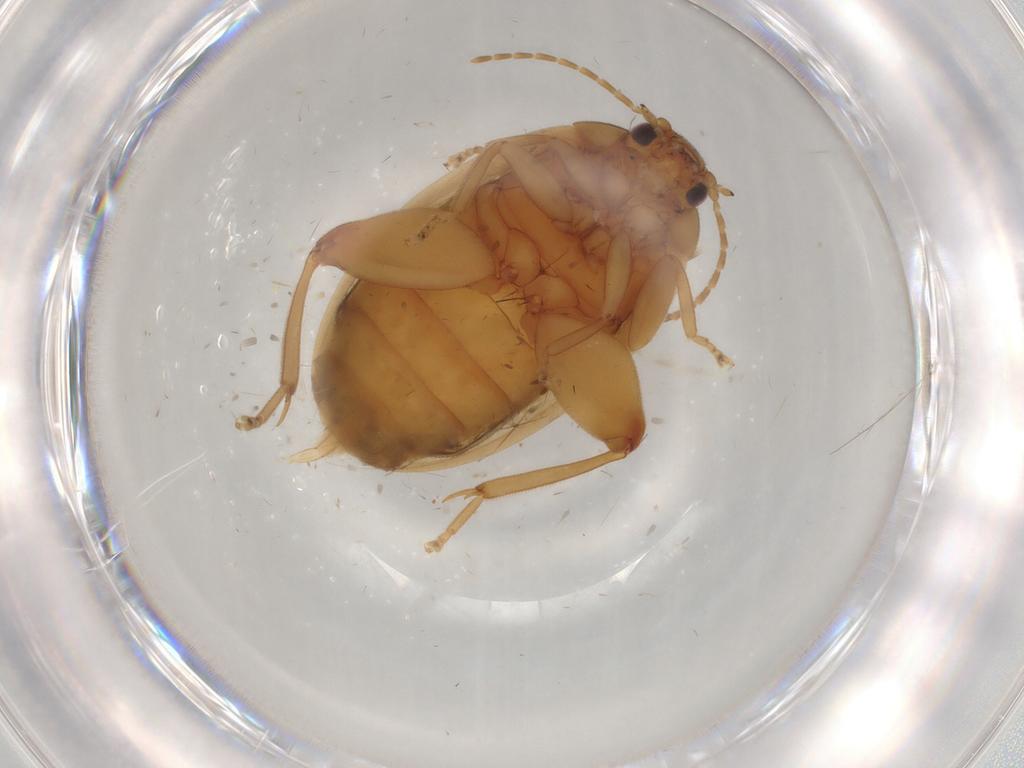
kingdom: Animalia
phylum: Arthropoda
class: Insecta
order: Coleoptera
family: Scirtidae
